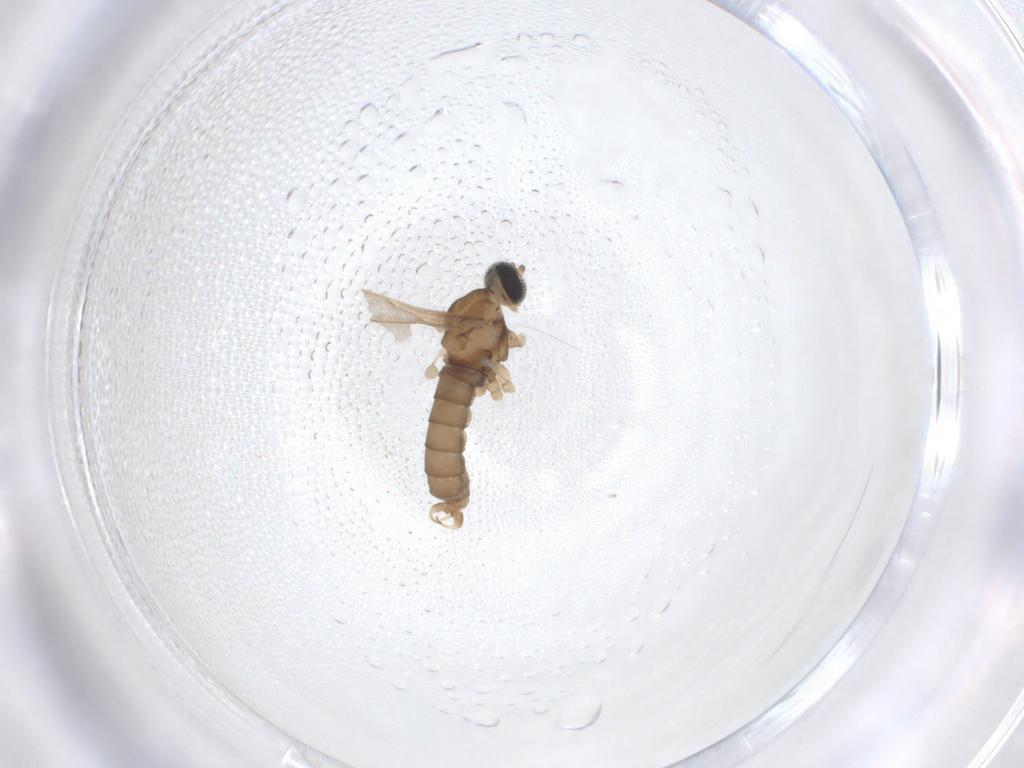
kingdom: Animalia
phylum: Arthropoda
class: Insecta
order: Diptera
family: Cecidomyiidae
